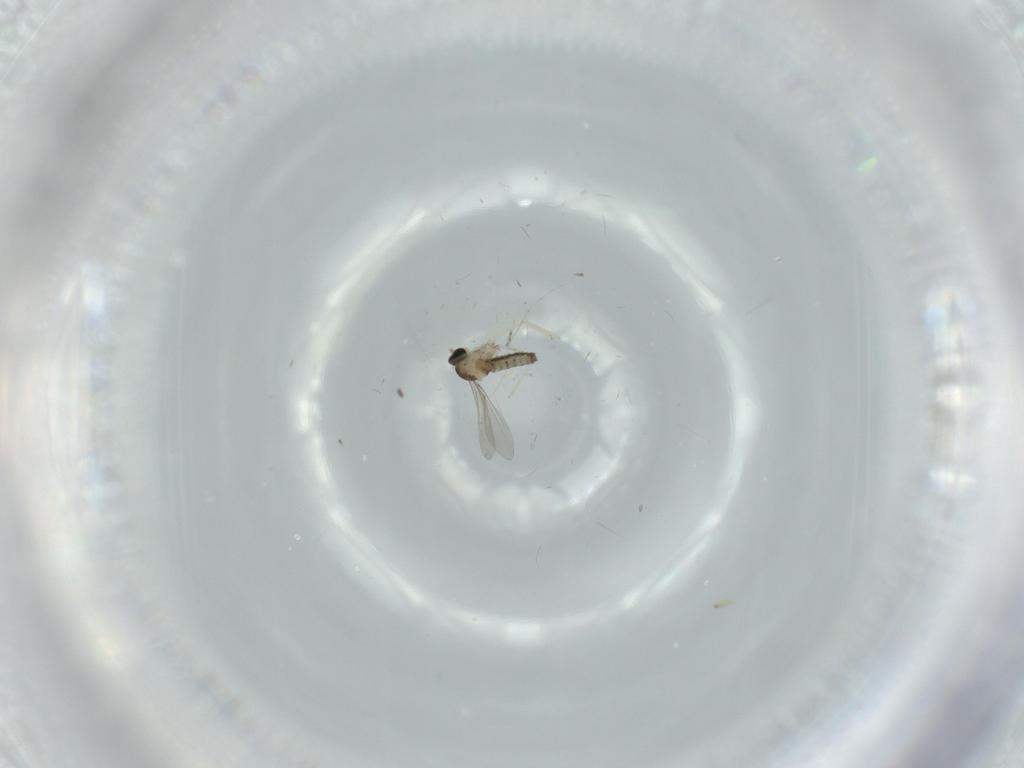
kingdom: Animalia
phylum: Arthropoda
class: Insecta
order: Diptera
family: Cecidomyiidae
